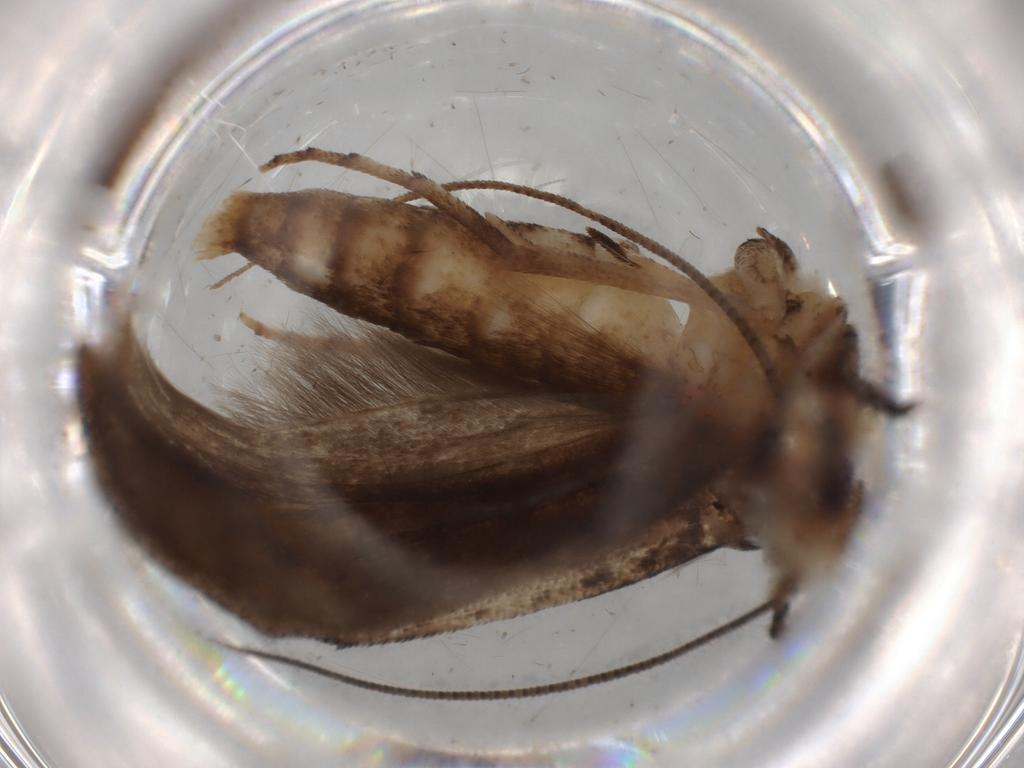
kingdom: Animalia
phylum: Arthropoda
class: Insecta
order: Lepidoptera
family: Yponomeutidae
